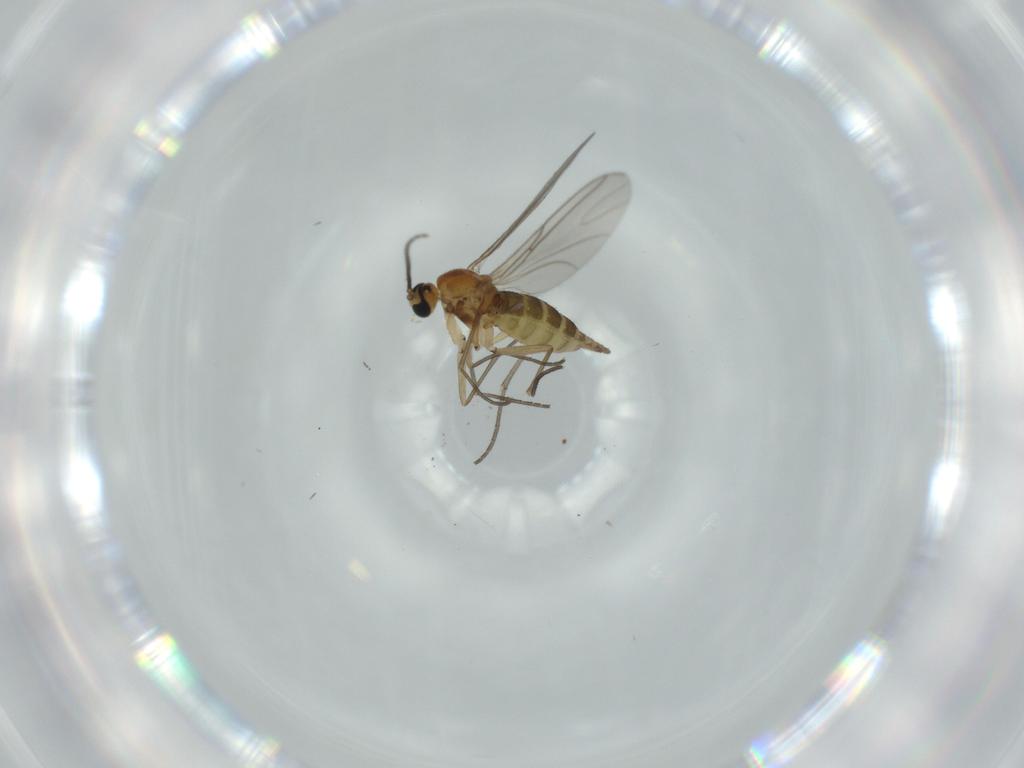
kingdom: Animalia
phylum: Arthropoda
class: Insecta
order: Diptera
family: Sciaridae
